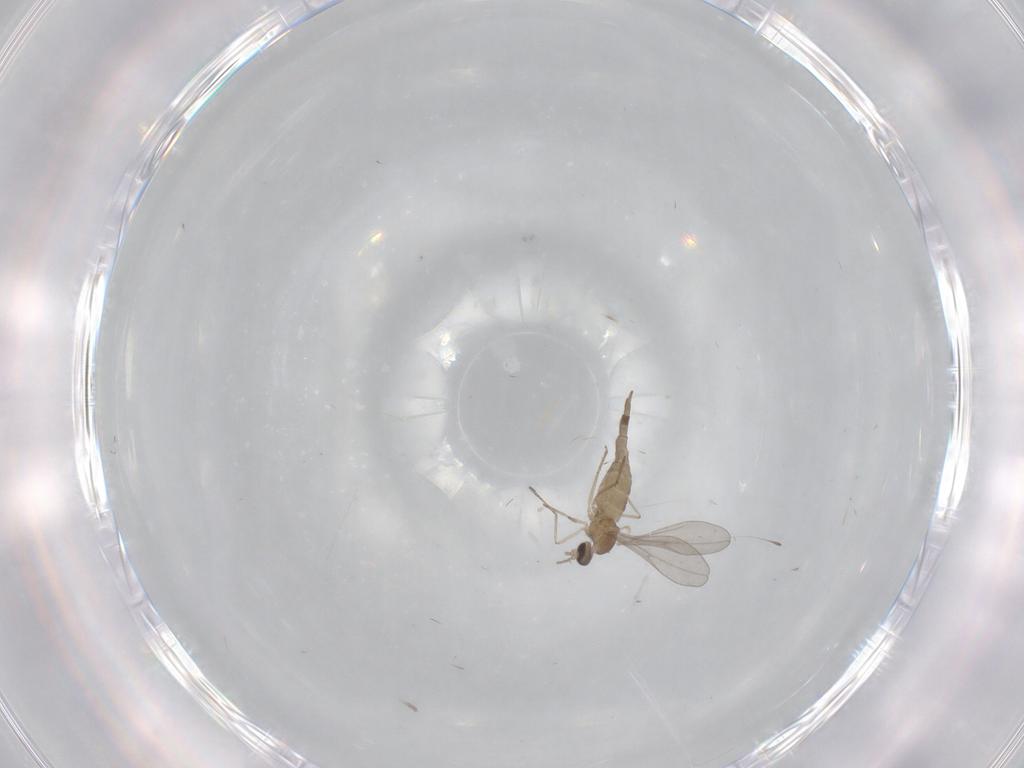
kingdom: Animalia
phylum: Arthropoda
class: Insecta
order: Diptera
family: Cecidomyiidae
